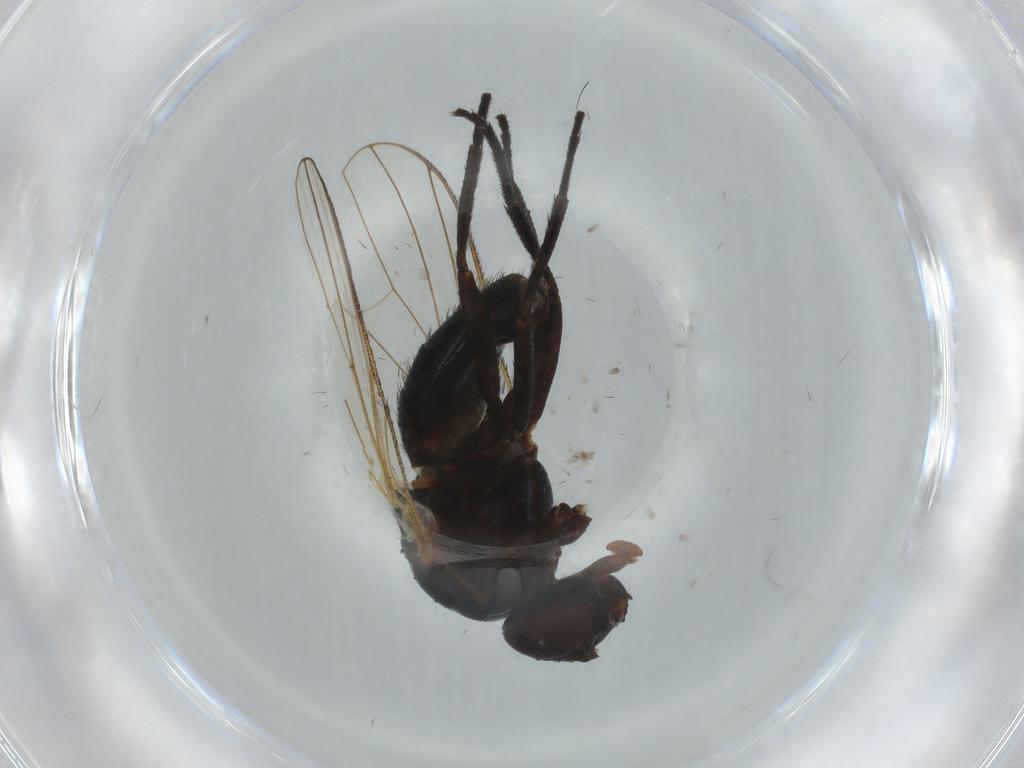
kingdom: Animalia
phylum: Arthropoda
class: Insecta
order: Diptera
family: Muscidae
